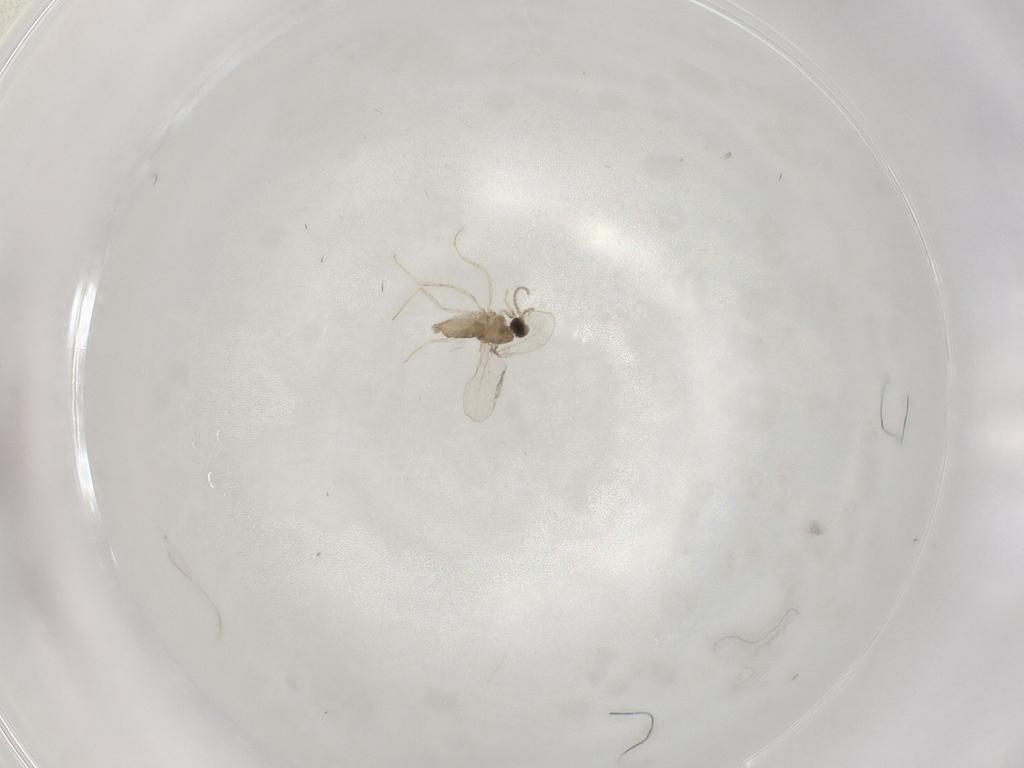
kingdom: Animalia
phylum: Arthropoda
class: Insecta
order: Diptera
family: Cecidomyiidae
